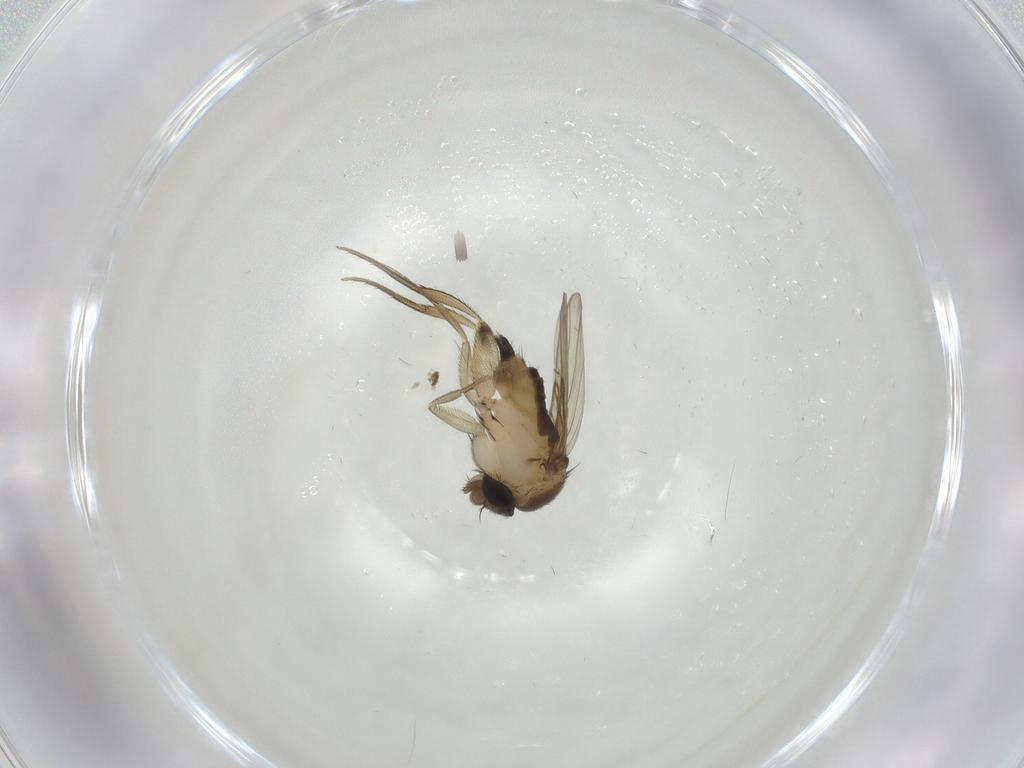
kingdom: Animalia
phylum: Arthropoda
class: Insecta
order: Diptera
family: Phoridae
